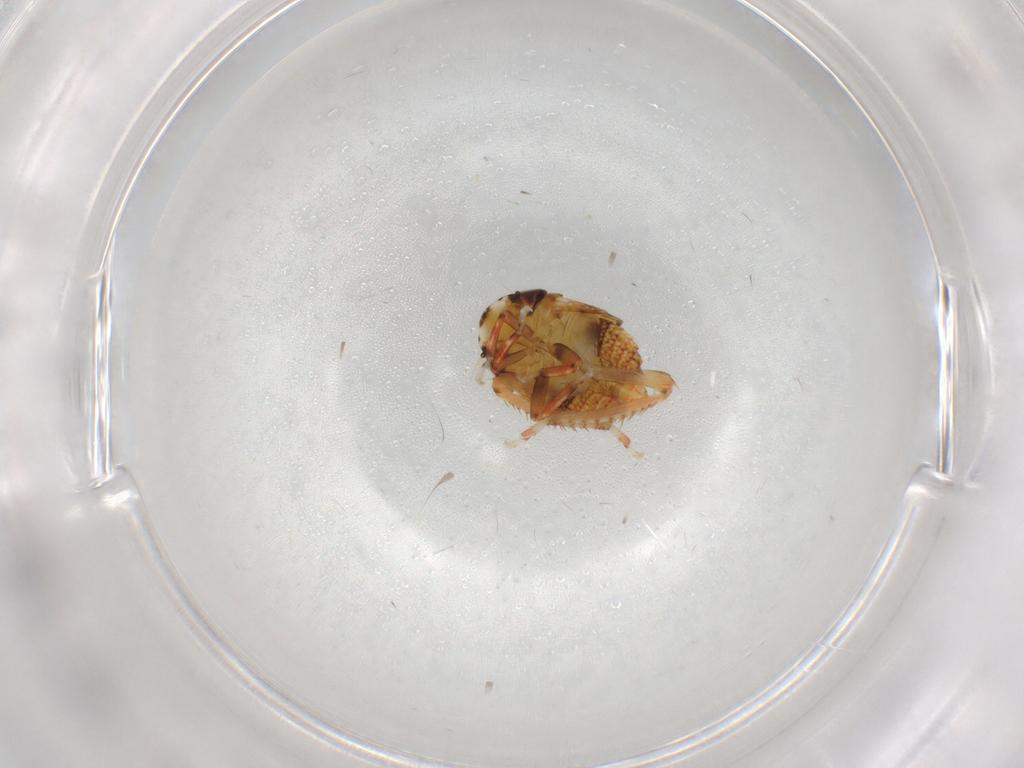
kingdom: Animalia
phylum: Arthropoda
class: Insecta
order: Hemiptera
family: Cicadellidae
